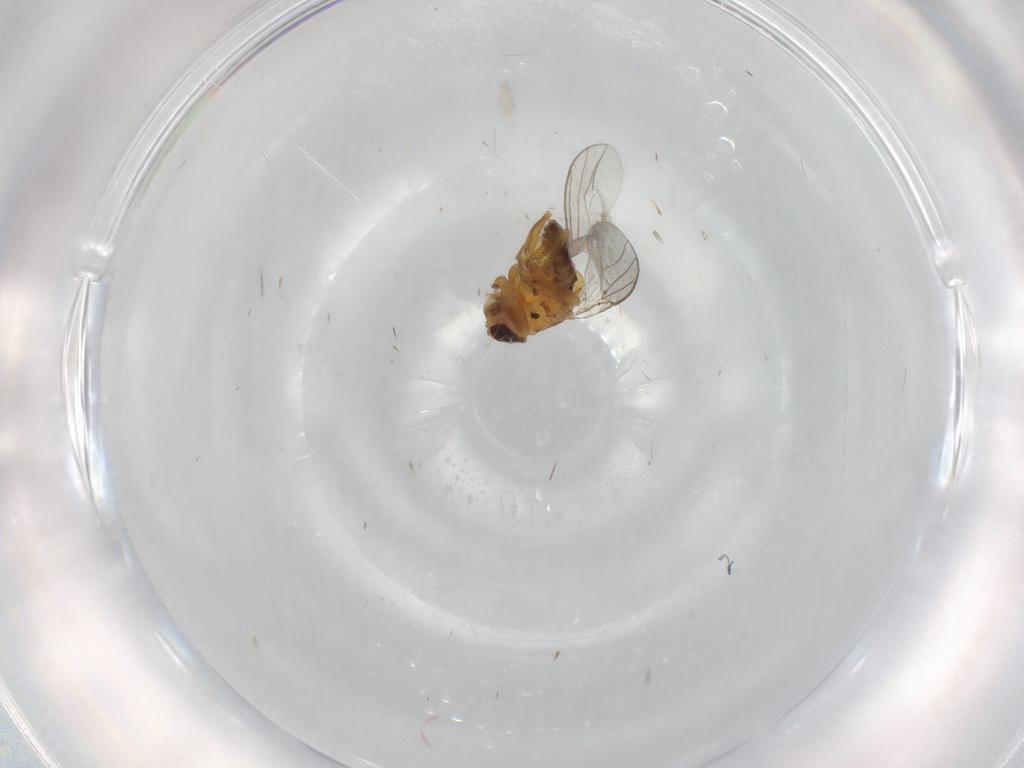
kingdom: Animalia
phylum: Arthropoda
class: Insecta
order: Diptera
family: Chloropidae
